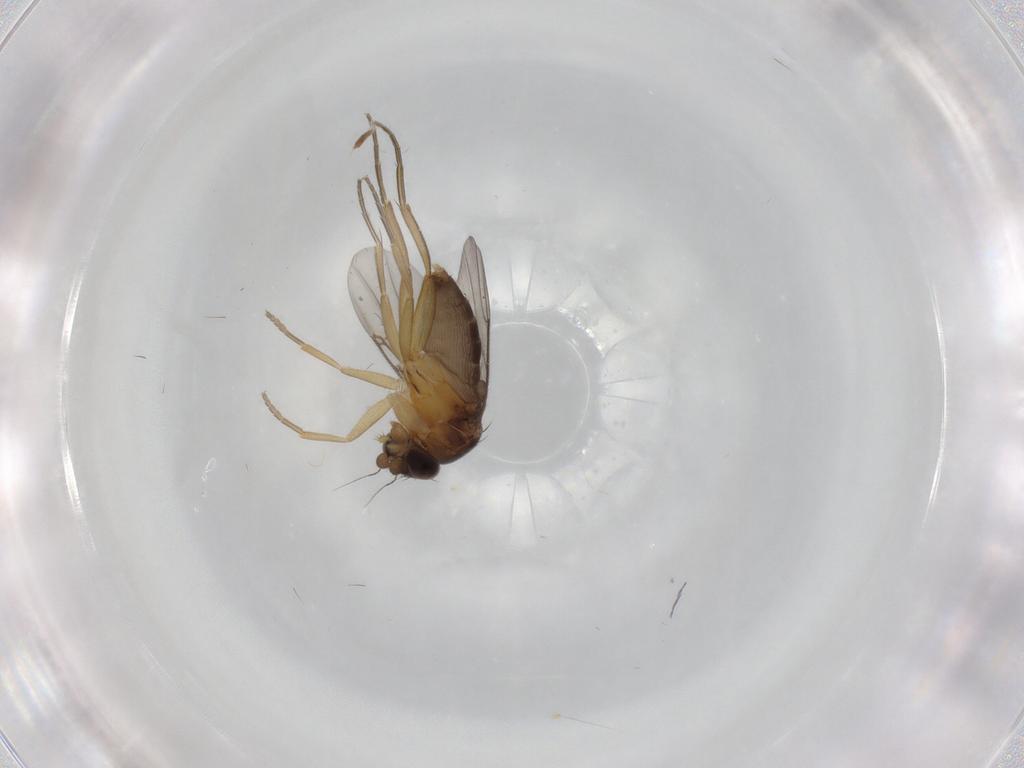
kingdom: Animalia
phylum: Arthropoda
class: Insecta
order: Diptera
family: Phoridae
